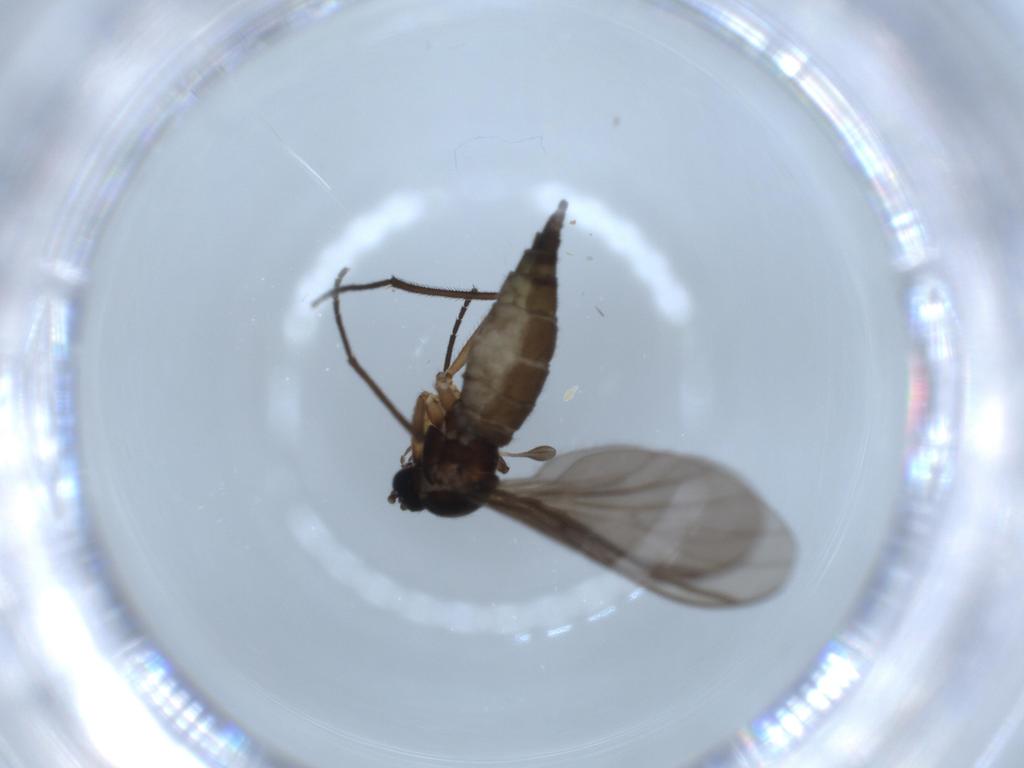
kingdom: Animalia
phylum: Arthropoda
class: Insecta
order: Diptera
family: Sciaridae
